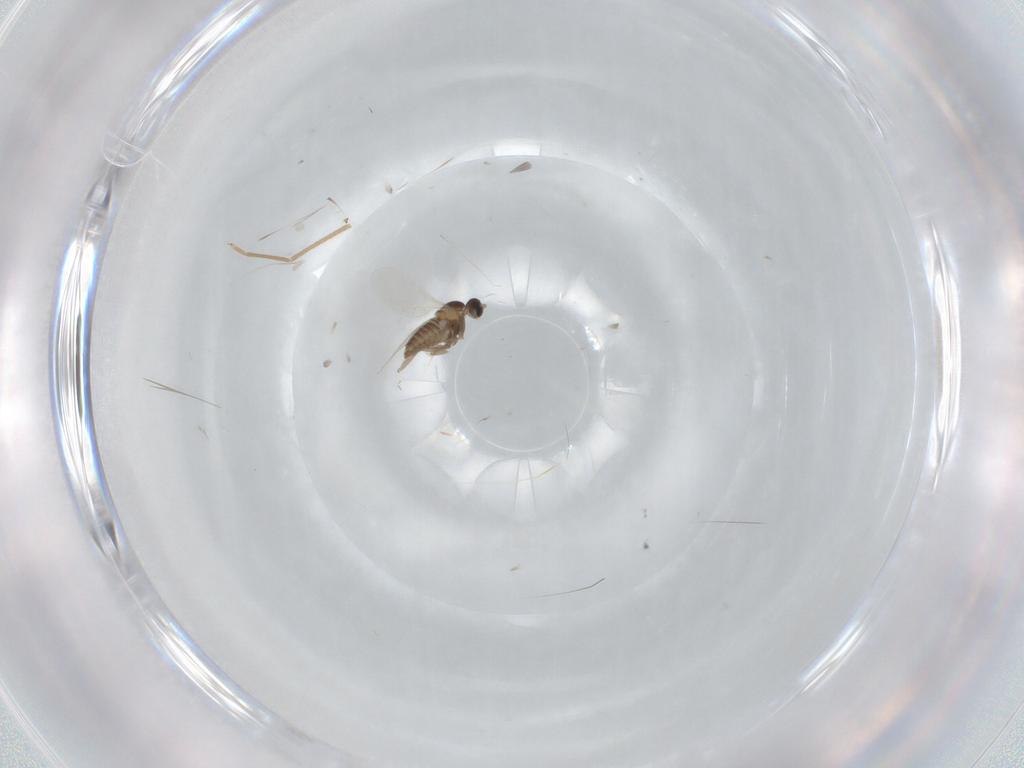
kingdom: Animalia
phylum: Arthropoda
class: Insecta
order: Diptera
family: Cecidomyiidae
